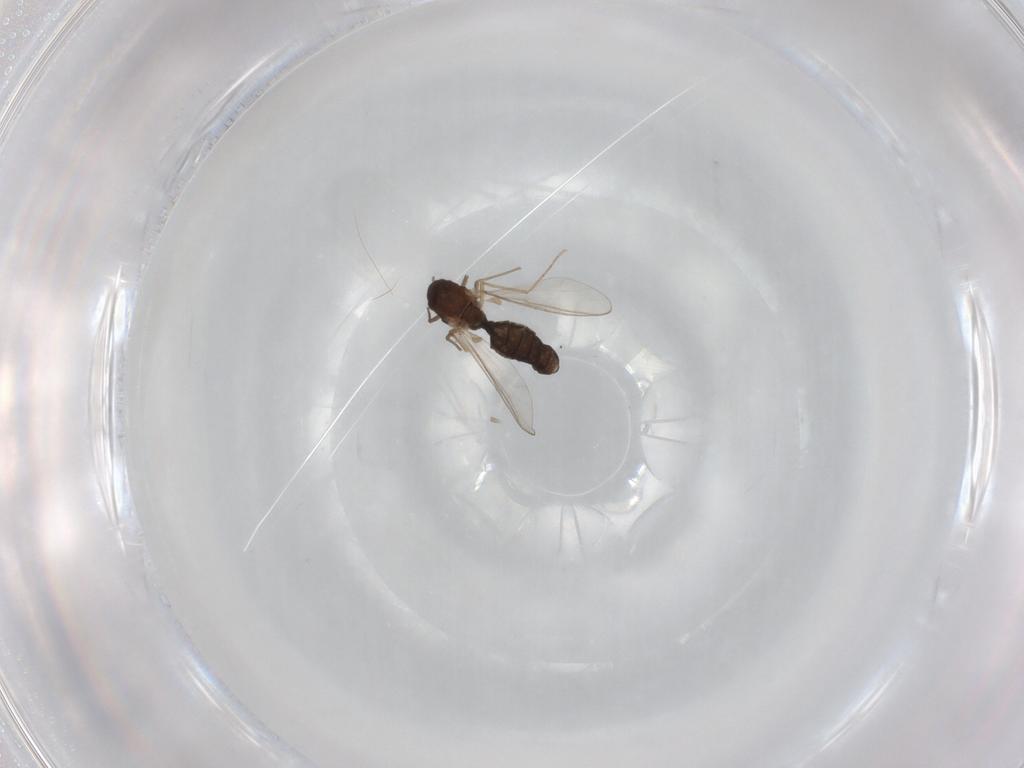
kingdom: Animalia
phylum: Arthropoda
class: Insecta
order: Diptera
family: Chironomidae
